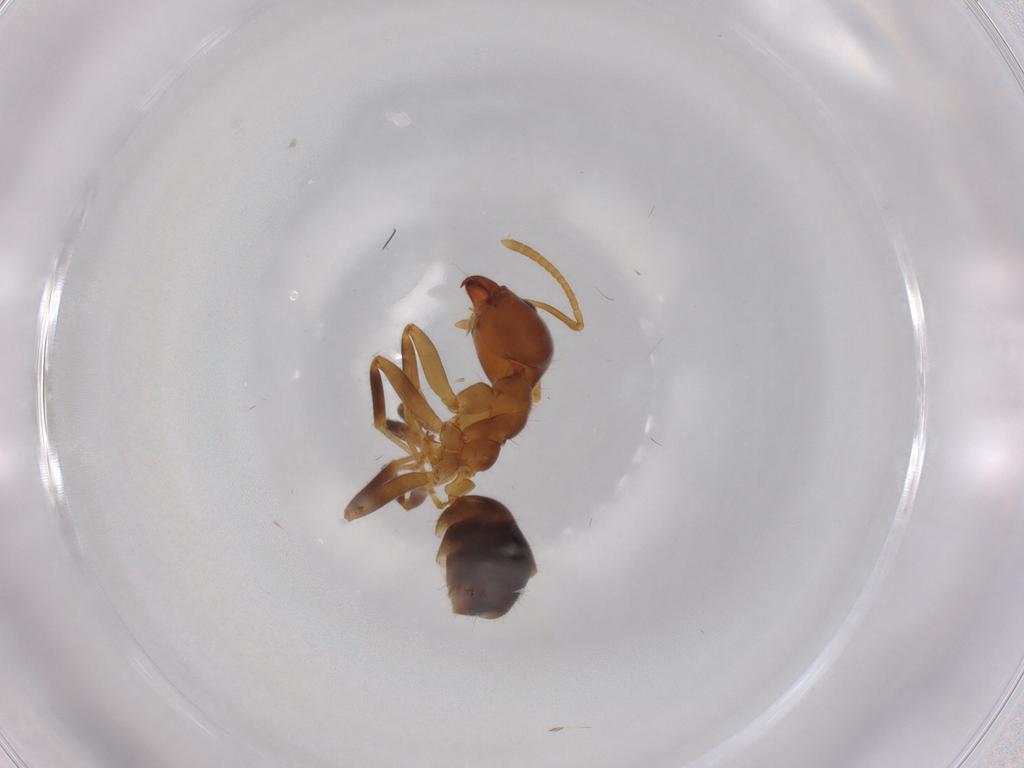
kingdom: Animalia
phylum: Arthropoda
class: Insecta
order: Hymenoptera
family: Formicidae
